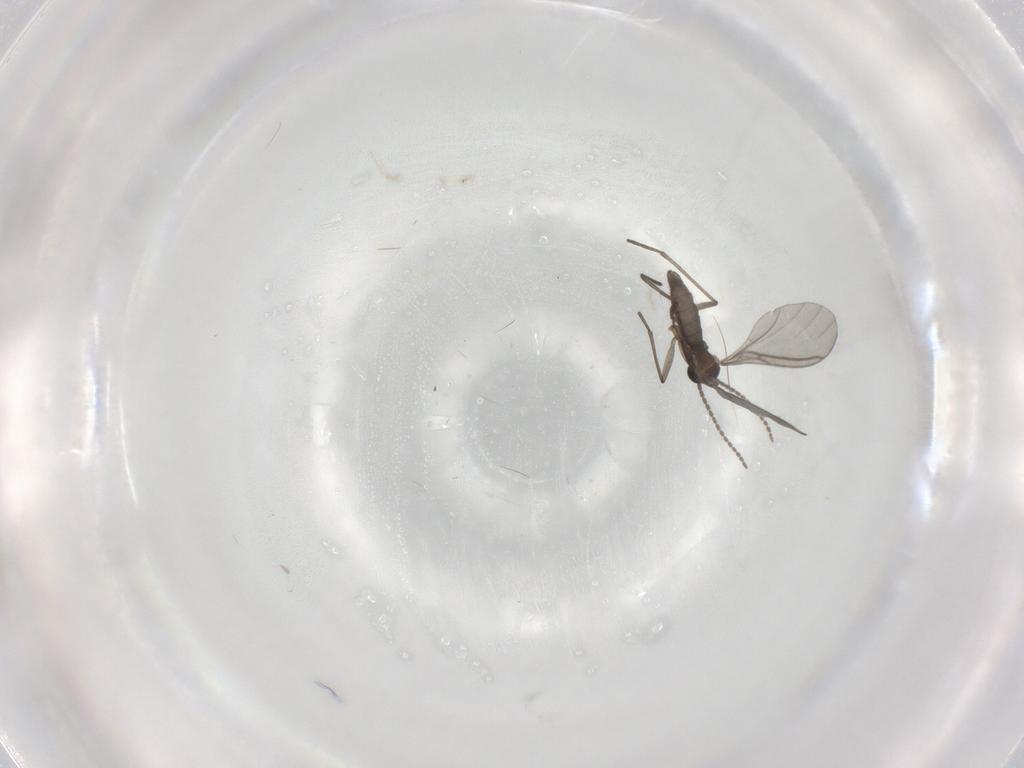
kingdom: Animalia
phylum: Arthropoda
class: Insecta
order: Diptera
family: Sciaridae
